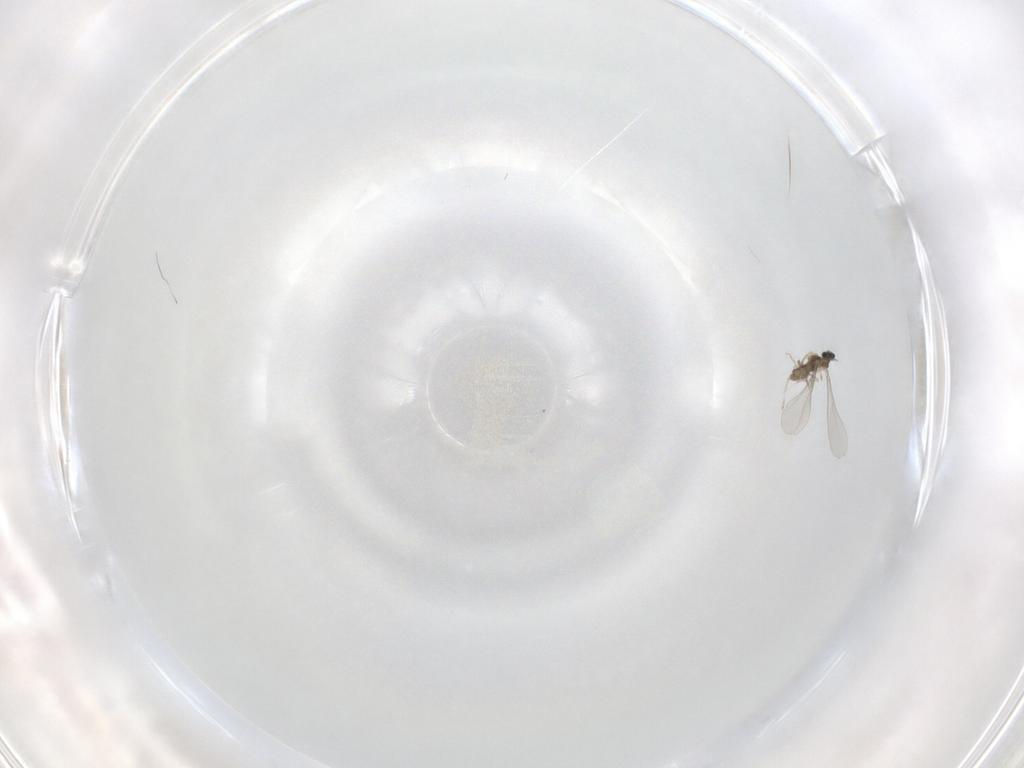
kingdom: Animalia
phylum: Arthropoda
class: Insecta
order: Diptera
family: Cecidomyiidae
